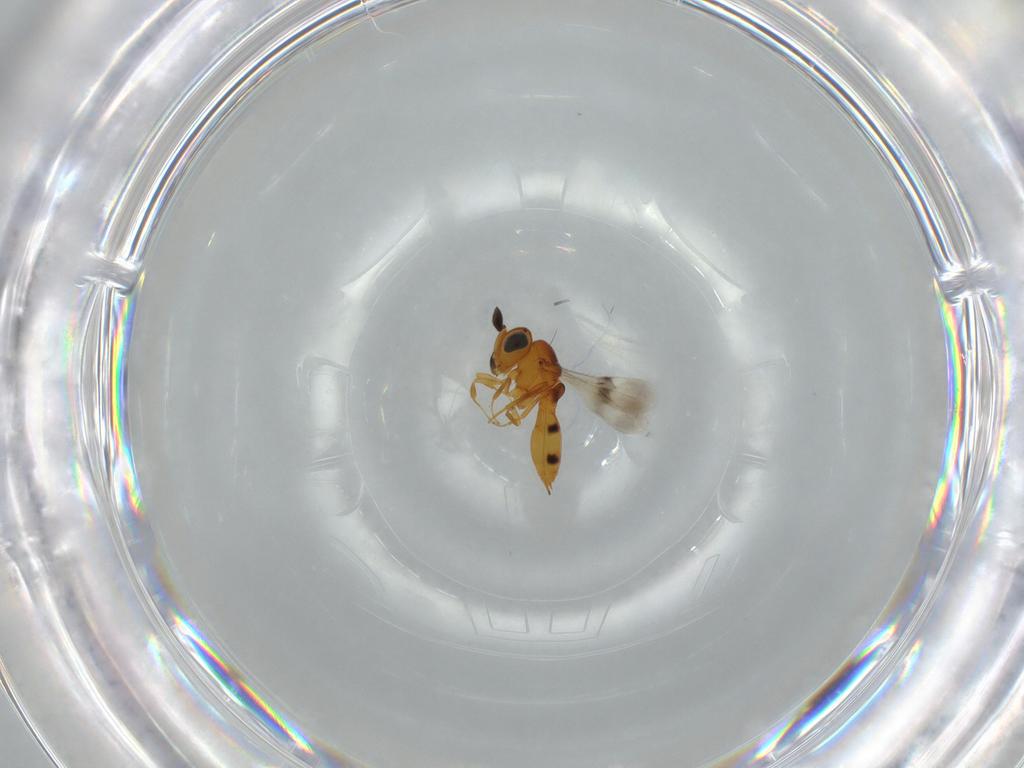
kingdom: Animalia
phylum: Arthropoda
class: Insecta
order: Hymenoptera
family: Scelionidae
